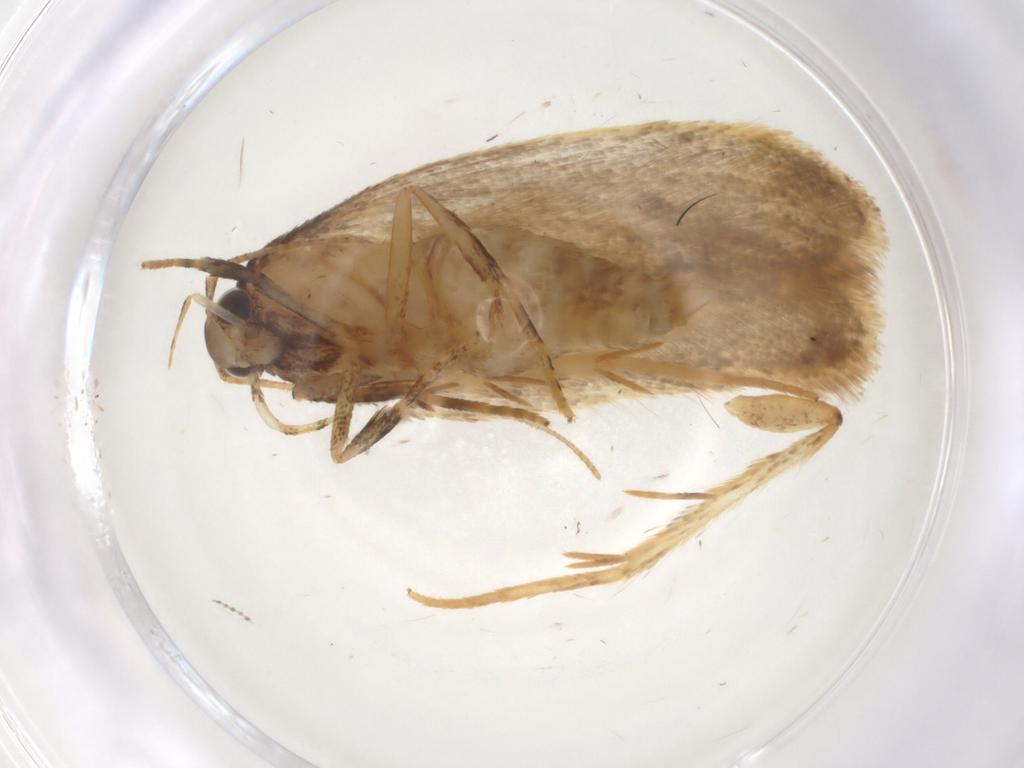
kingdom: Animalia
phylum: Arthropoda
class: Insecta
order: Lepidoptera
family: Gelechiidae
